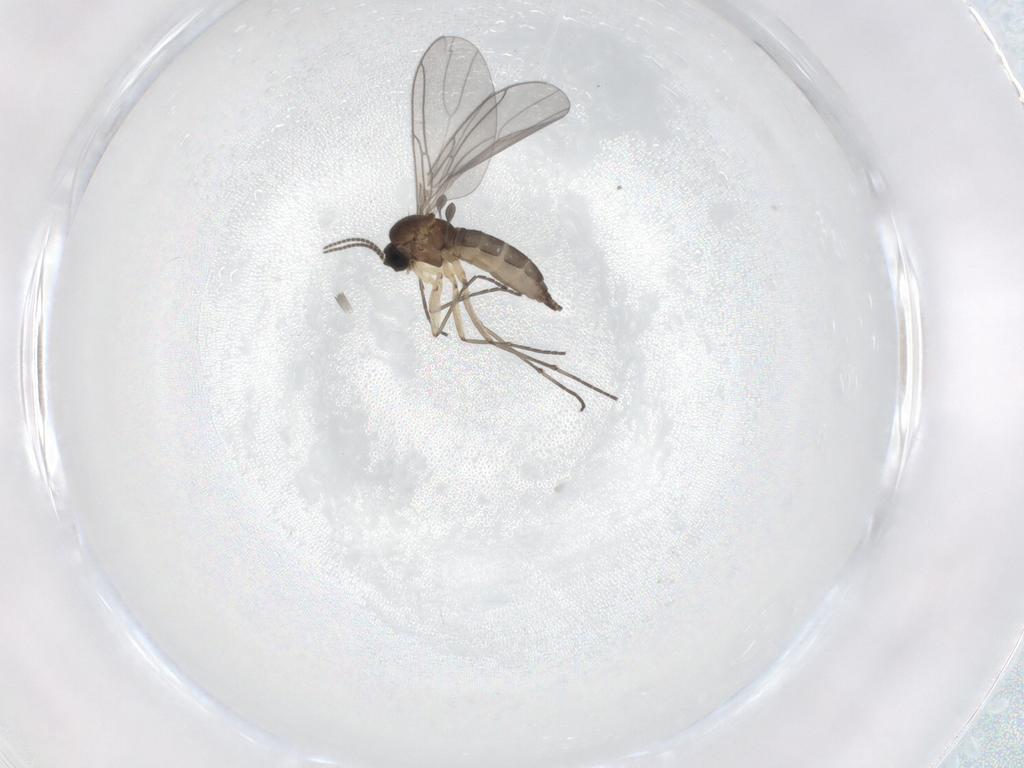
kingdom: Animalia
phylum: Arthropoda
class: Insecta
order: Diptera
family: Sciaridae
